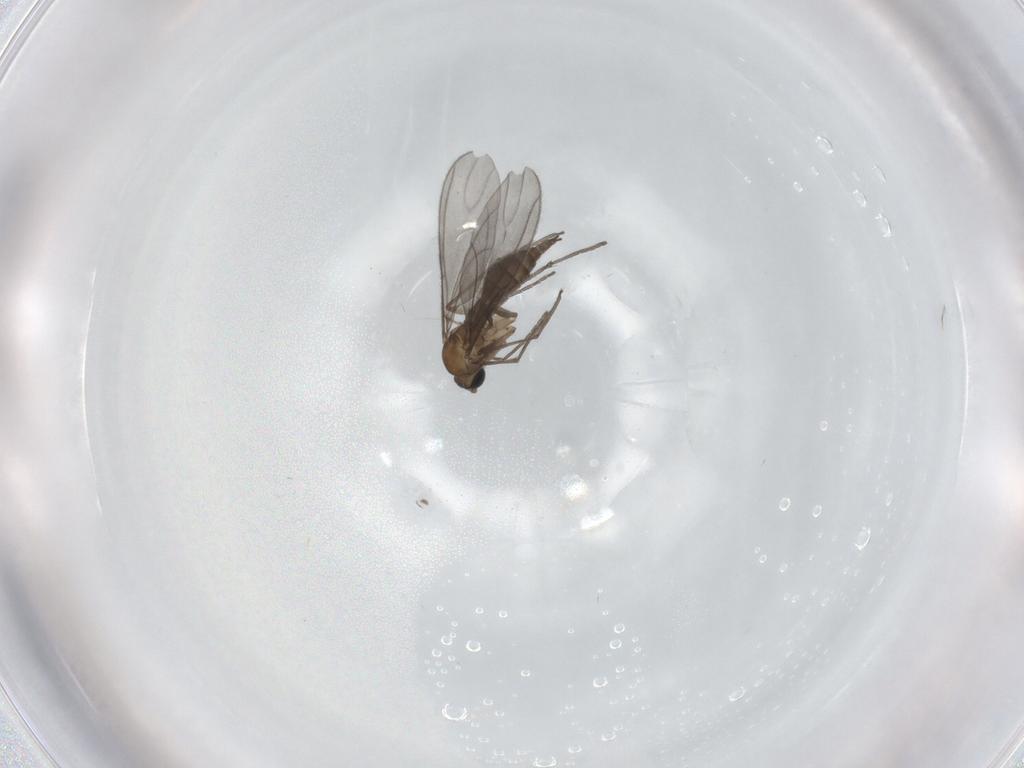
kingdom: Animalia
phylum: Arthropoda
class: Insecta
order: Diptera
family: Sciaridae
